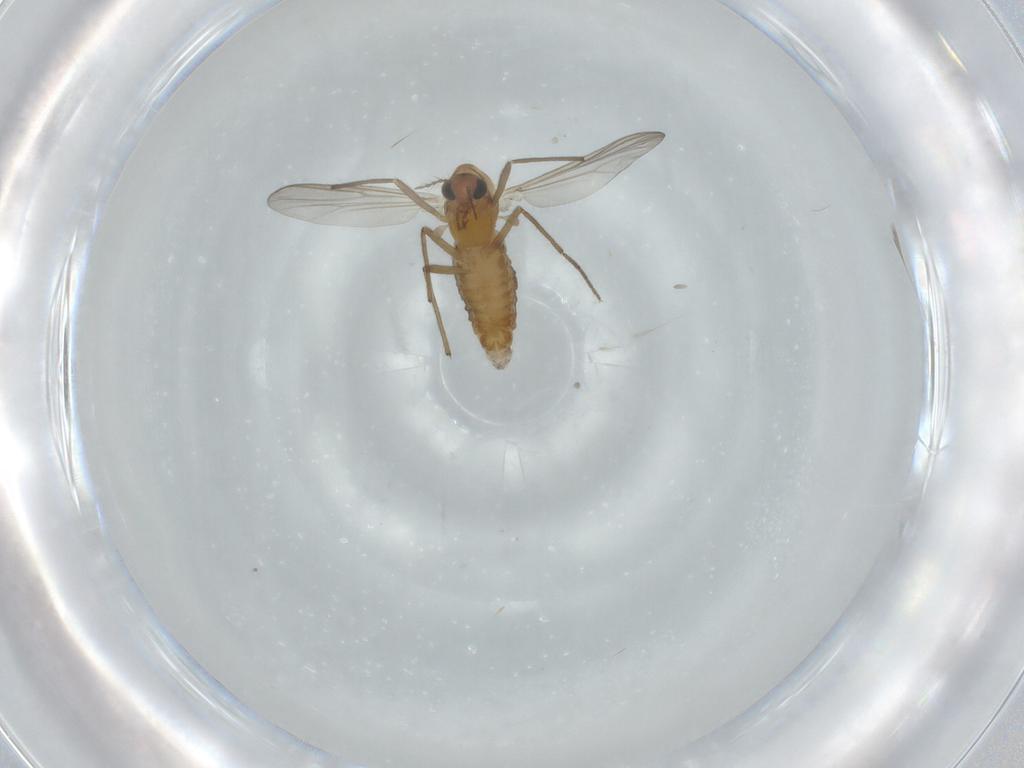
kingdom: Animalia
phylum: Arthropoda
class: Insecta
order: Diptera
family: Chironomidae
